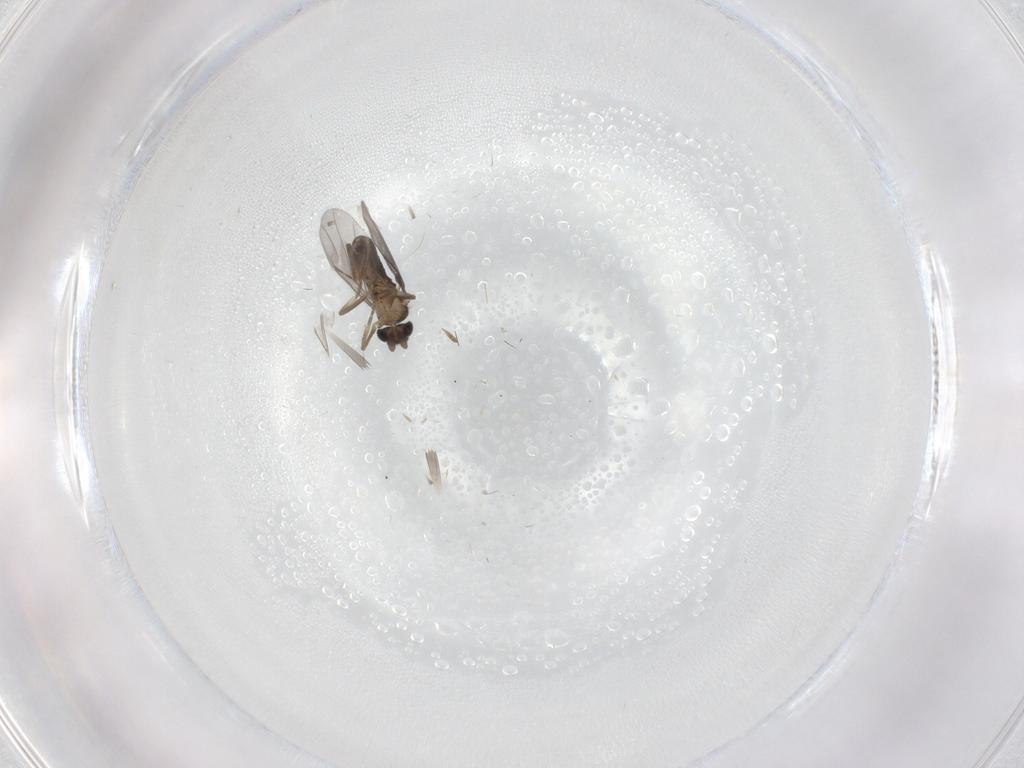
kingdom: Animalia
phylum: Arthropoda
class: Insecta
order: Diptera
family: Cecidomyiidae
